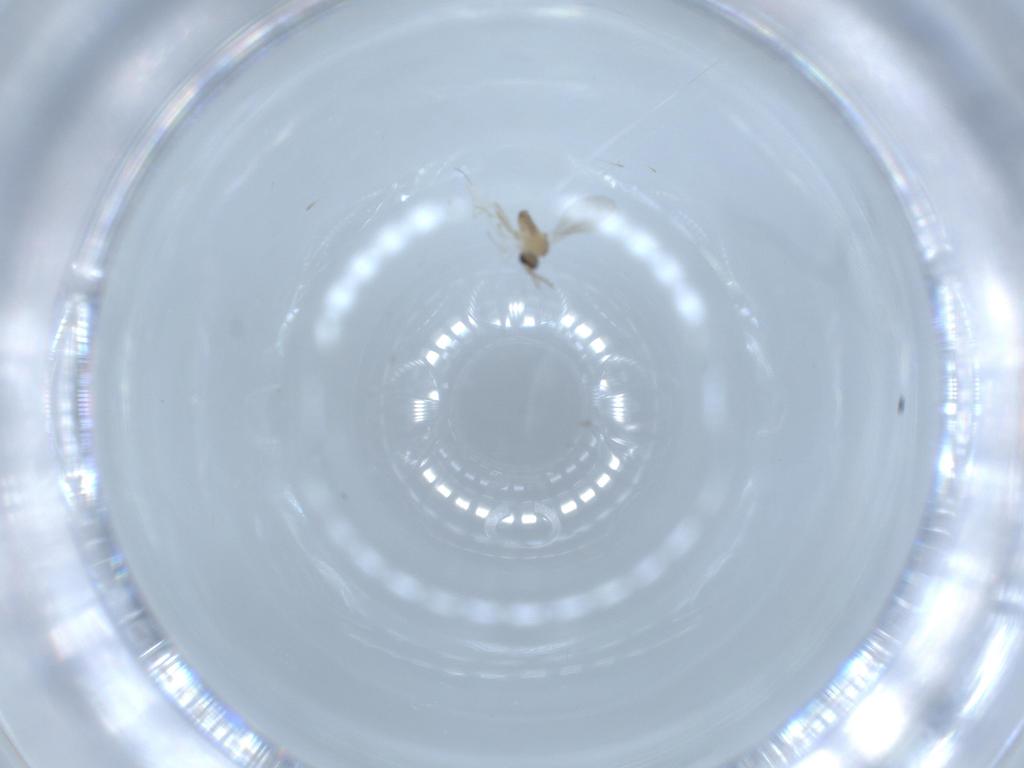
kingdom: Animalia
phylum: Arthropoda
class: Insecta
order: Diptera
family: Cecidomyiidae
